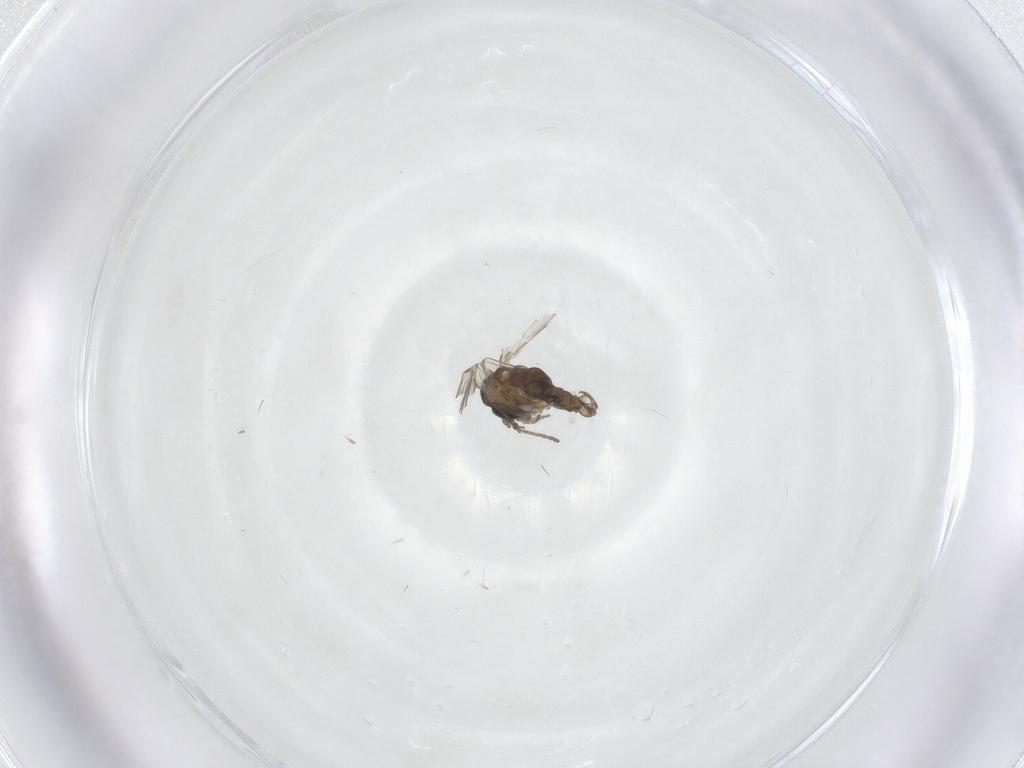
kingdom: Animalia
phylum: Arthropoda
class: Insecta
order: Diptera
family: Psychodidae
